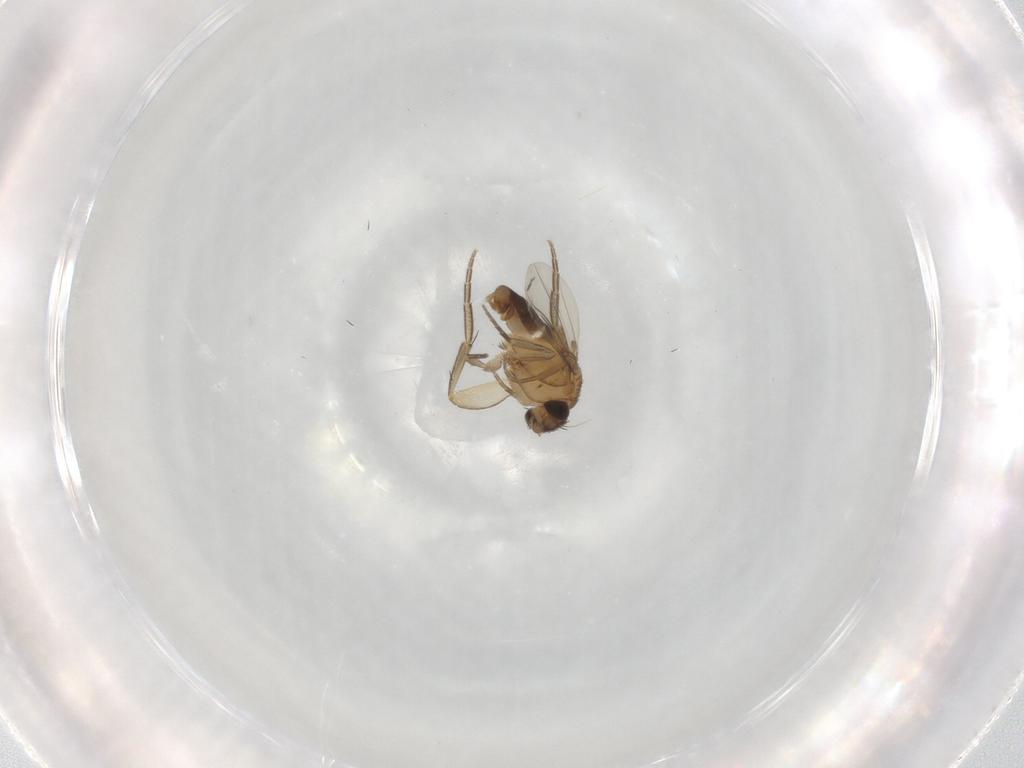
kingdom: Animalia
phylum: Arthropoda
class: Insecta
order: Diptera
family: Phoridae
